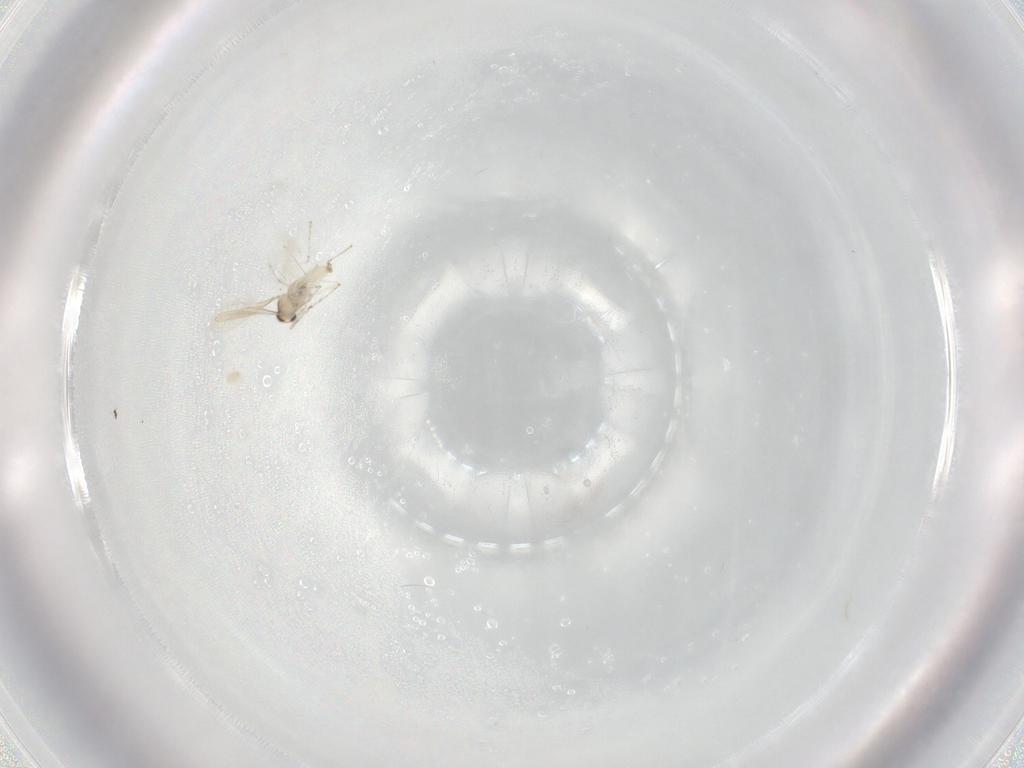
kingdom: Animalia
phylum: Arthropoda
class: Insecta
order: Diptera
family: Cecidomyiidae
